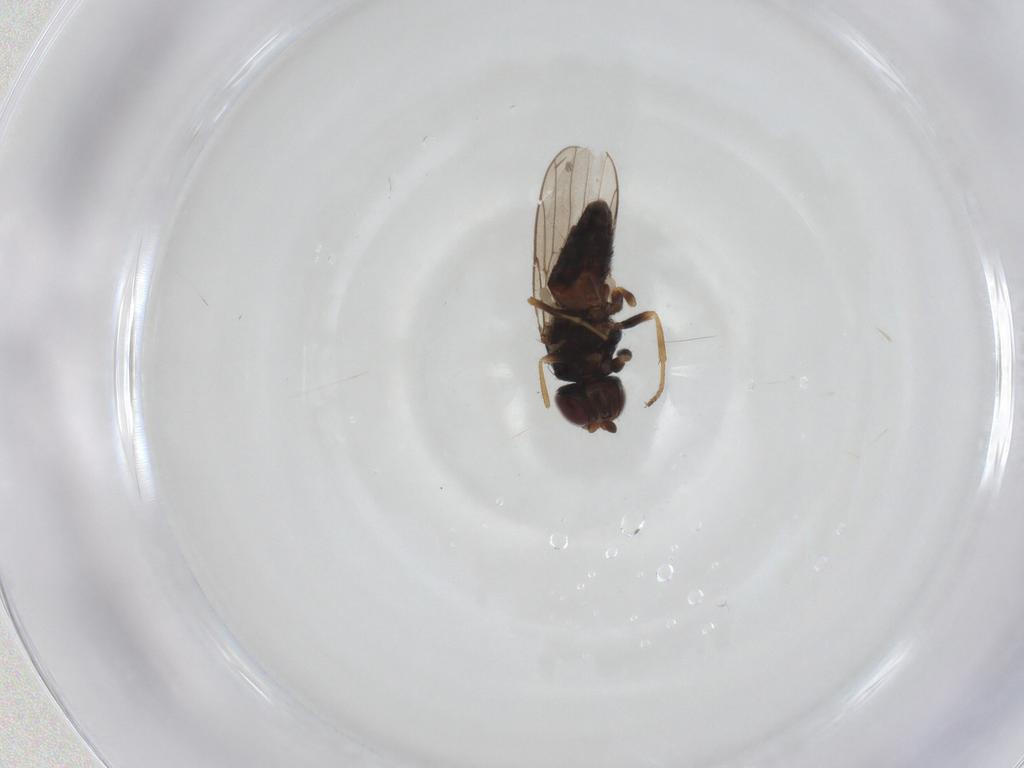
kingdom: Animalia
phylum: Arthropoda
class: Insecta
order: Diptera
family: Chloropidae
